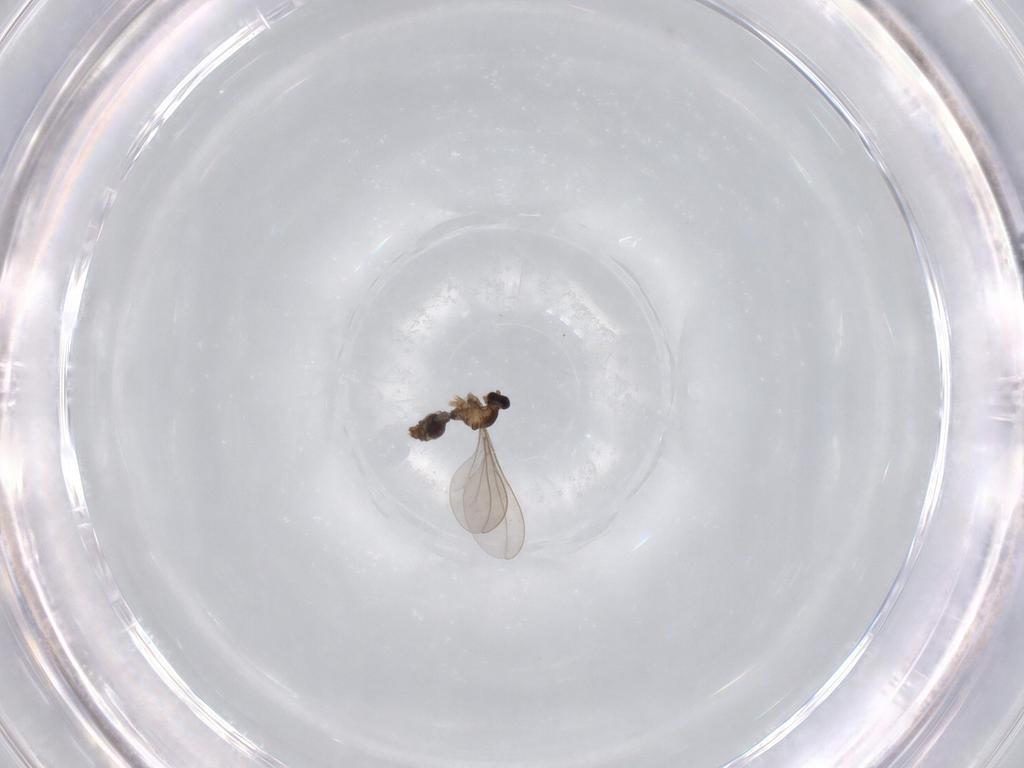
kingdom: Animalia
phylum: Arthropoda
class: Insecta
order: Diptera
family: Cecidomyiidae
